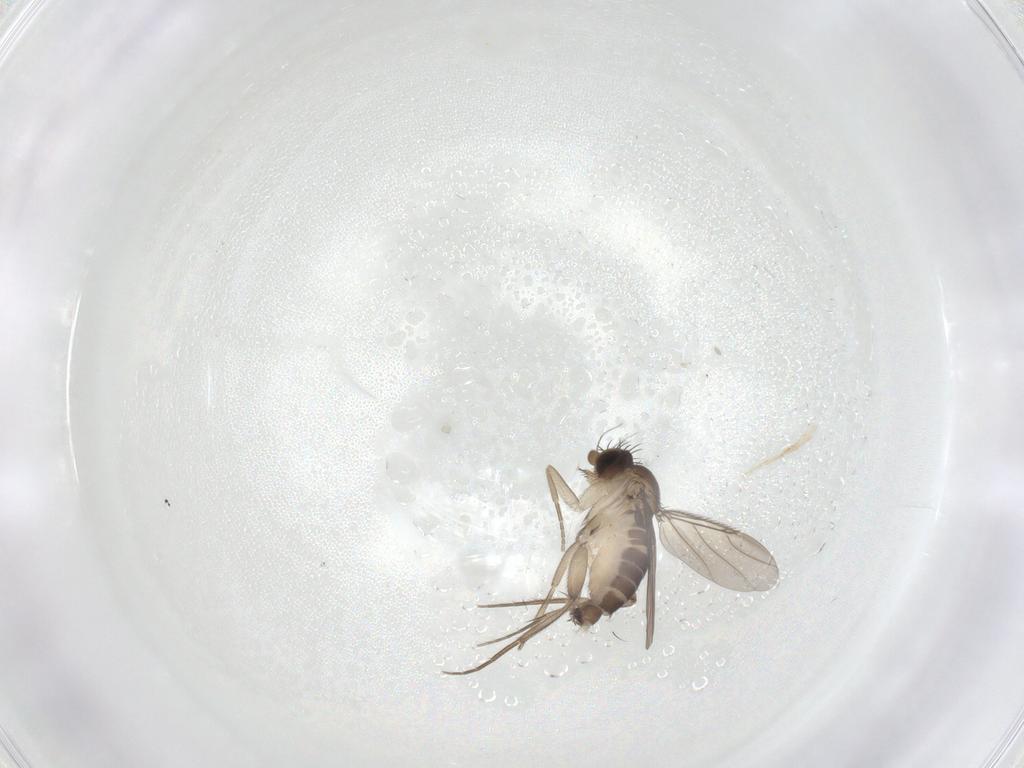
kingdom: Animalia
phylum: Arthropoda
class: Insecta
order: Diptera
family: Phoridae
